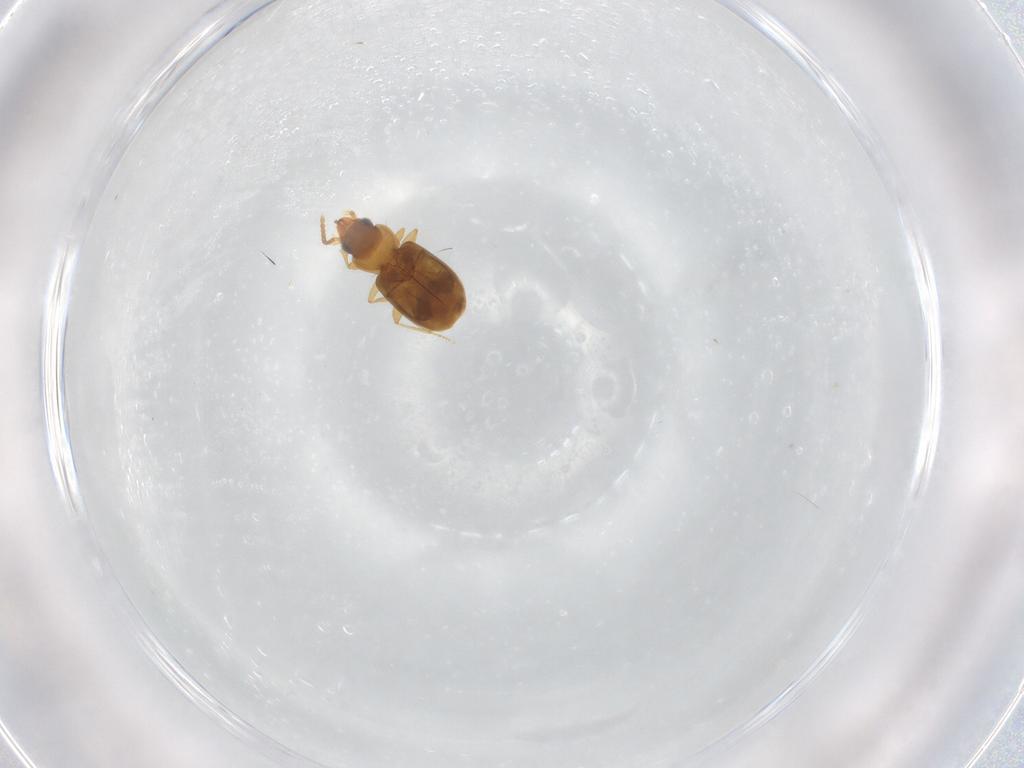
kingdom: Animalia
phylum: Arthropoda
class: Insecta
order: Coleoptera
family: Carabidae
